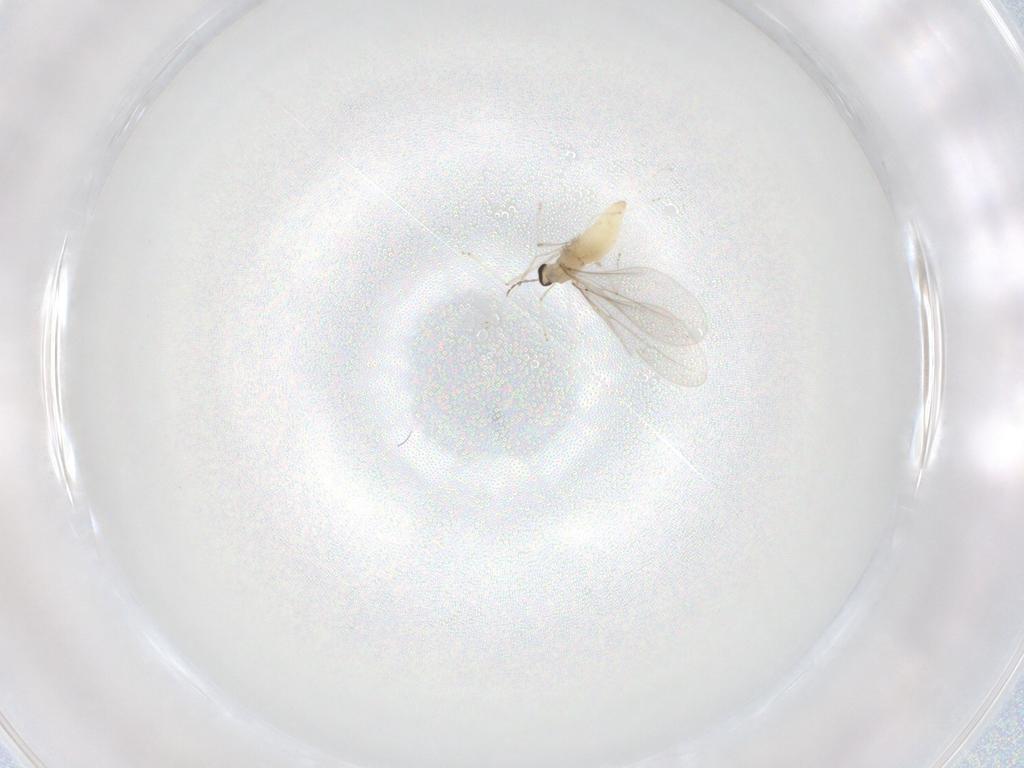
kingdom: Animalia
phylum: Arthropoda
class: Insecta
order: Diptera
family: Cecidomyiidae
